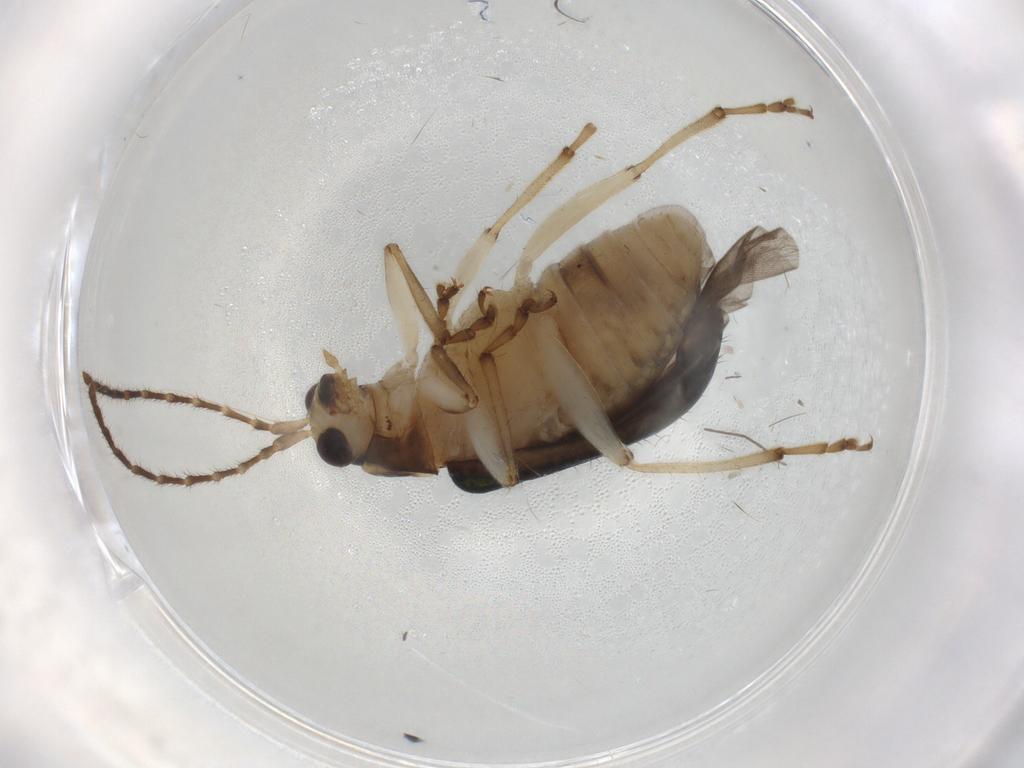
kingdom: Animalia
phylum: Arthropoda
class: Insecta
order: Coleoptera
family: Chrysomelidae
